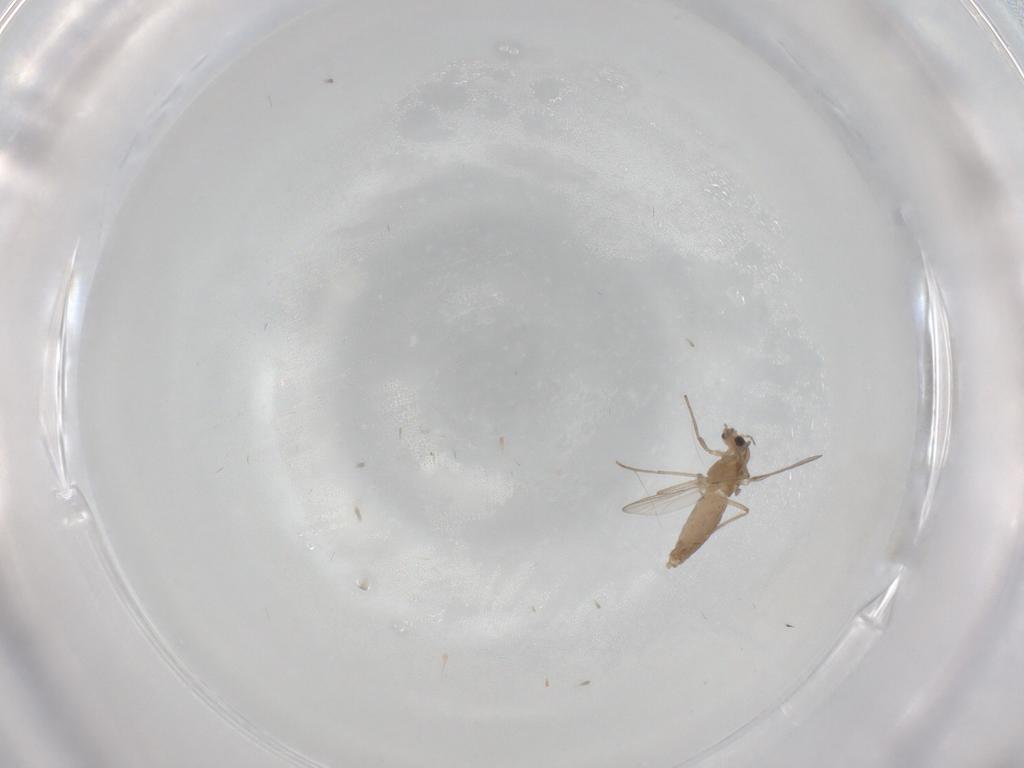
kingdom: Animalia
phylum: Arthropoda
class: Insecta
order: Diptera
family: Chironomidae
